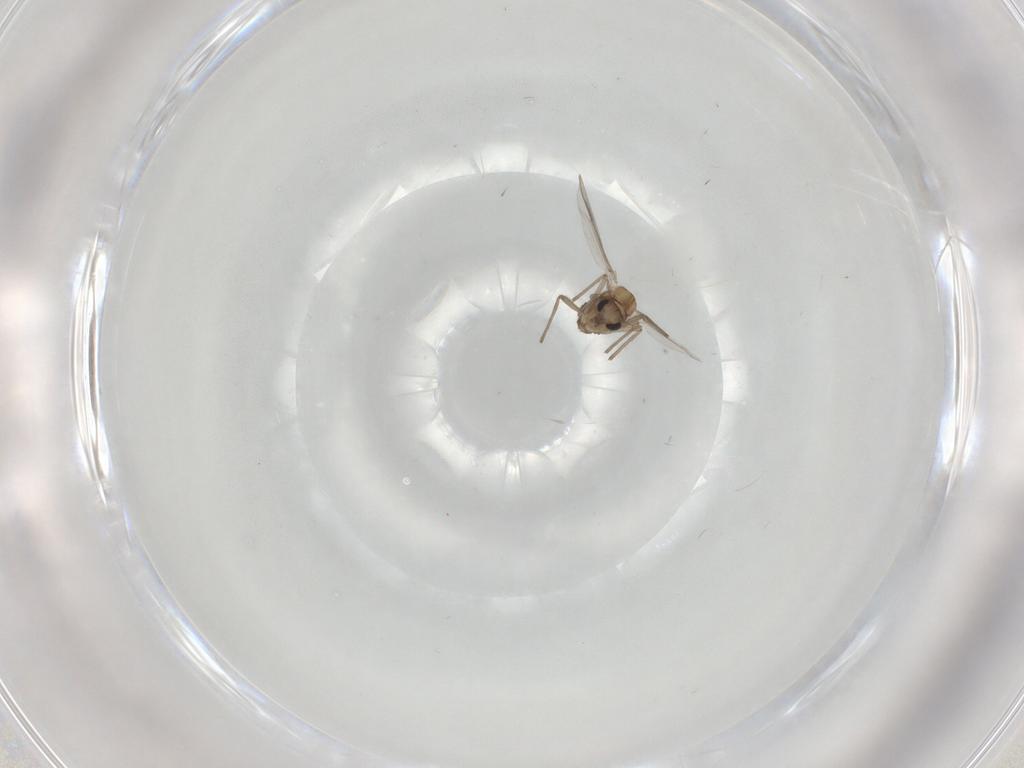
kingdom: Animalia
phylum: Arthropoda
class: Insecta
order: Diptera
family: Chironomidae
